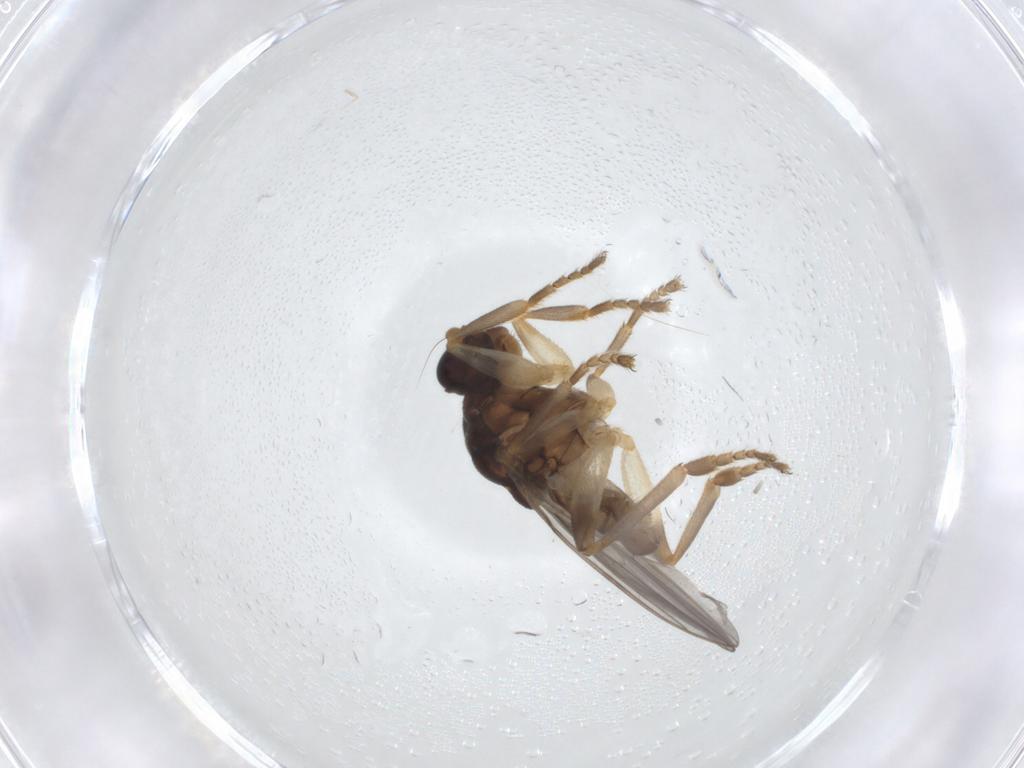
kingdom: Animalia
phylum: Arthropoda
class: Insecta
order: Diptera
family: Sphaeroceridae
